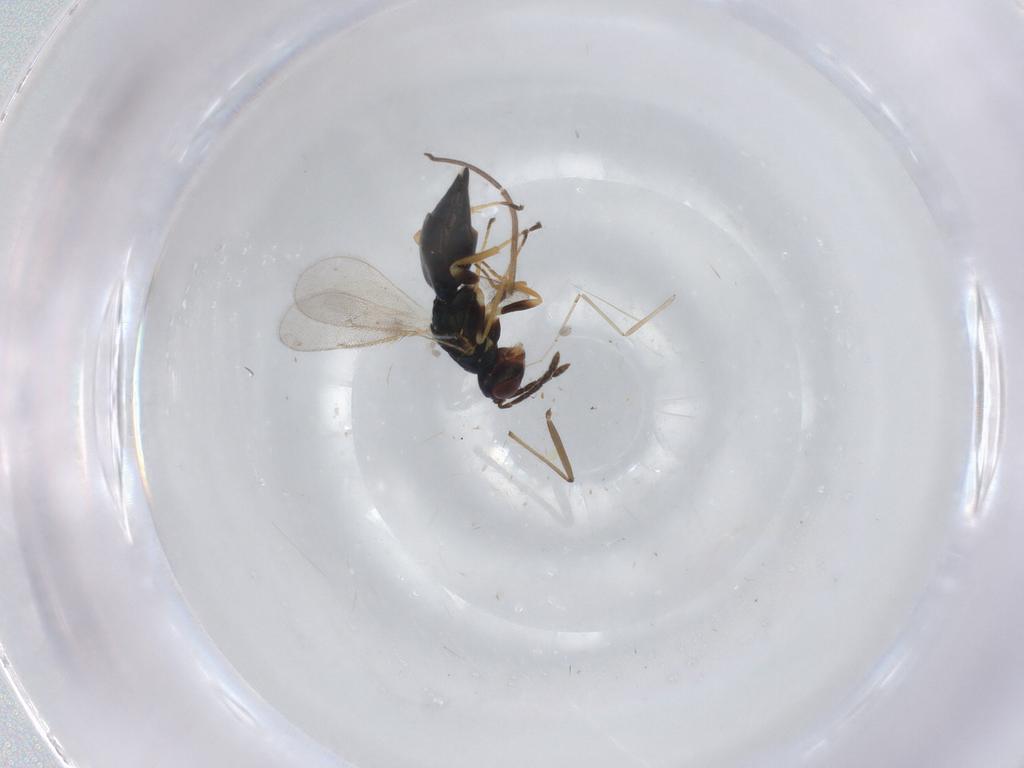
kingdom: Animalia
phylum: Arthropoda
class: Insecta
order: Hymenoptera
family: Eulophidae
